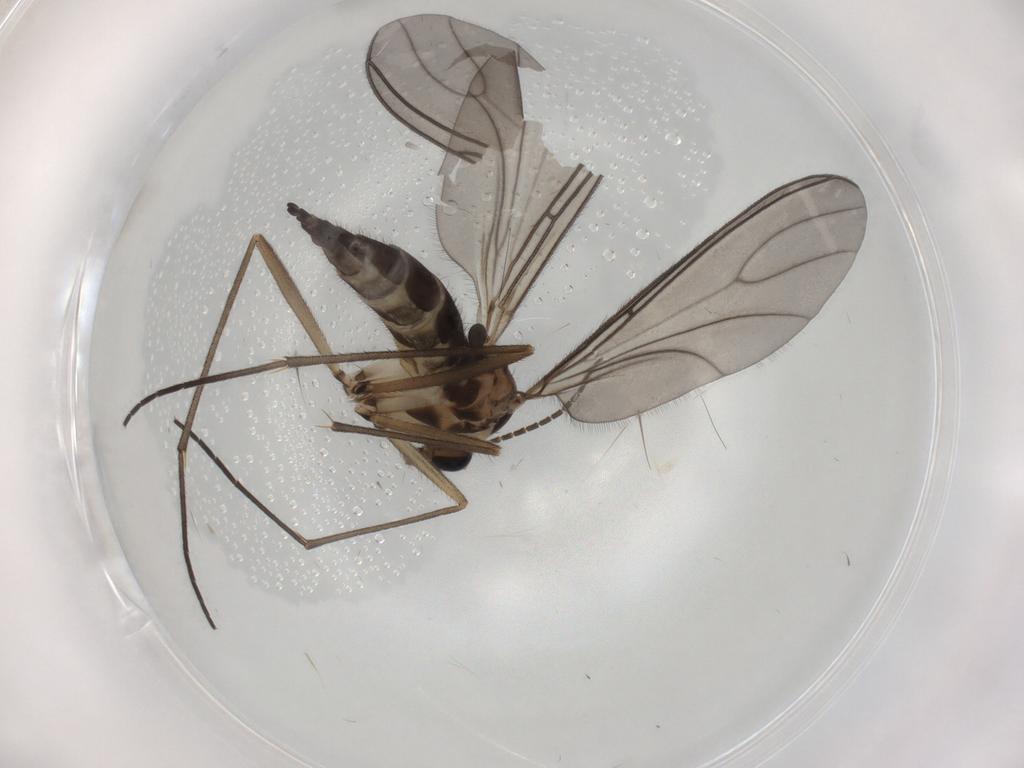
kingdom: Animalia
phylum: Arthropoda
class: Insecta
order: Diptera
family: Sciaridae
